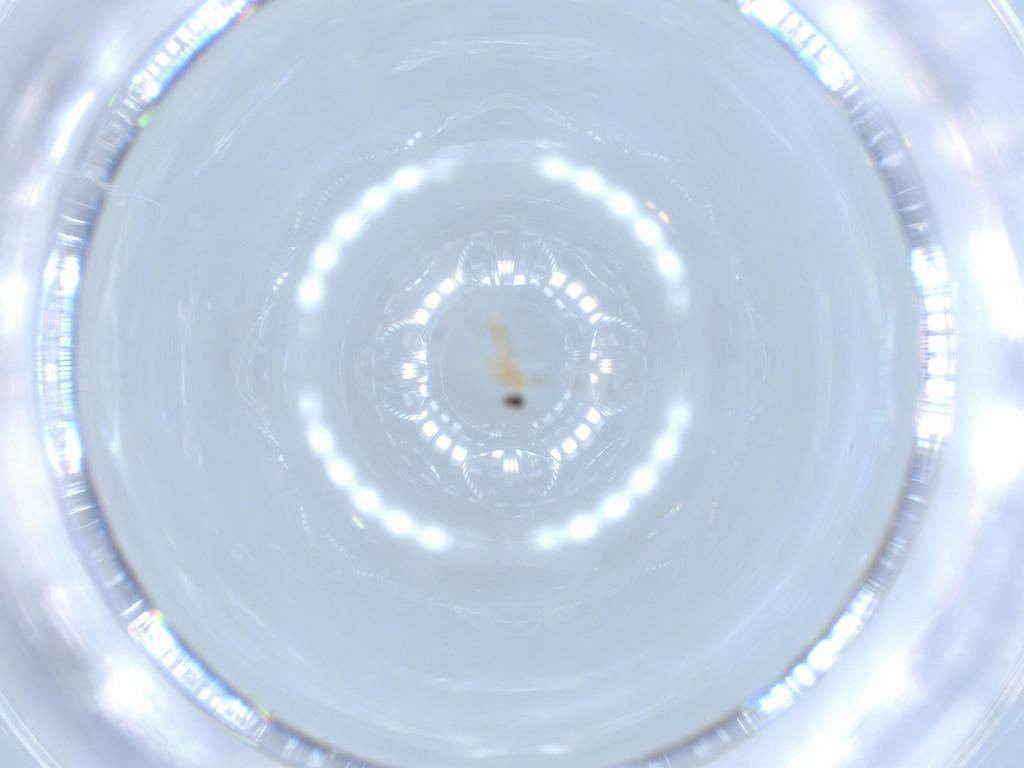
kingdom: Animalia
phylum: Arthropoda
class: Insecta
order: Diptera
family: Cecidomyiidae
